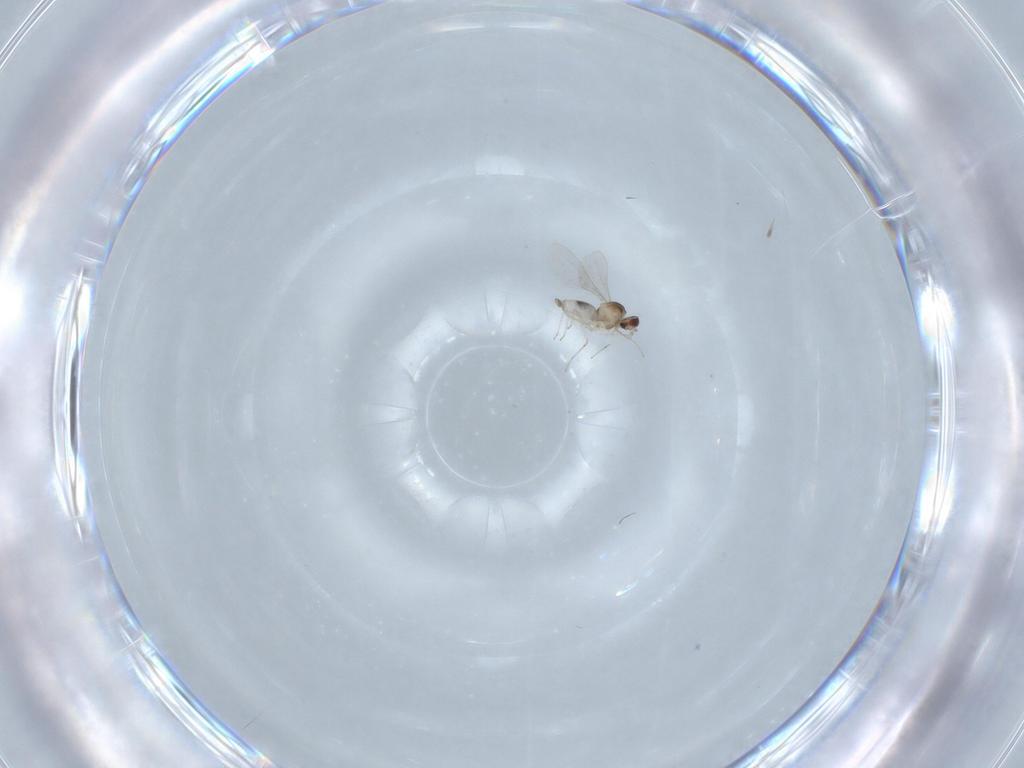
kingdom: Animalia
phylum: Arthropoda
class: Insecta
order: Diptera
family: Cecidomyiidae
